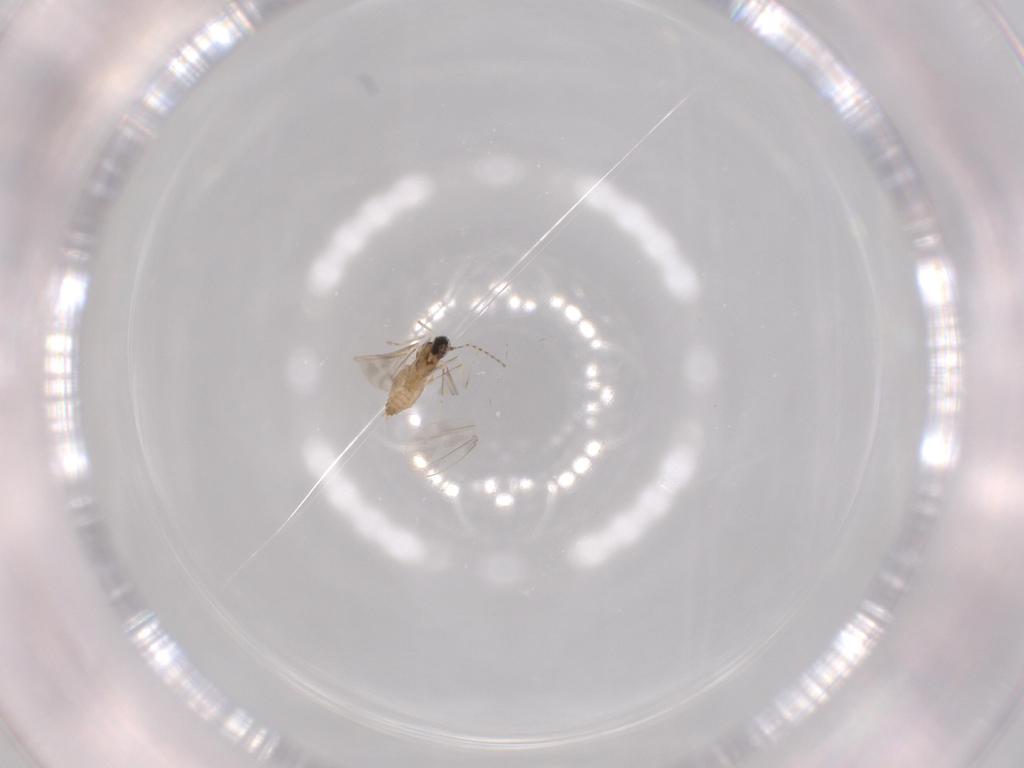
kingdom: Animalia
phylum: Arthropoda
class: Insecta
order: Diptera
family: Cecidomyiidae
